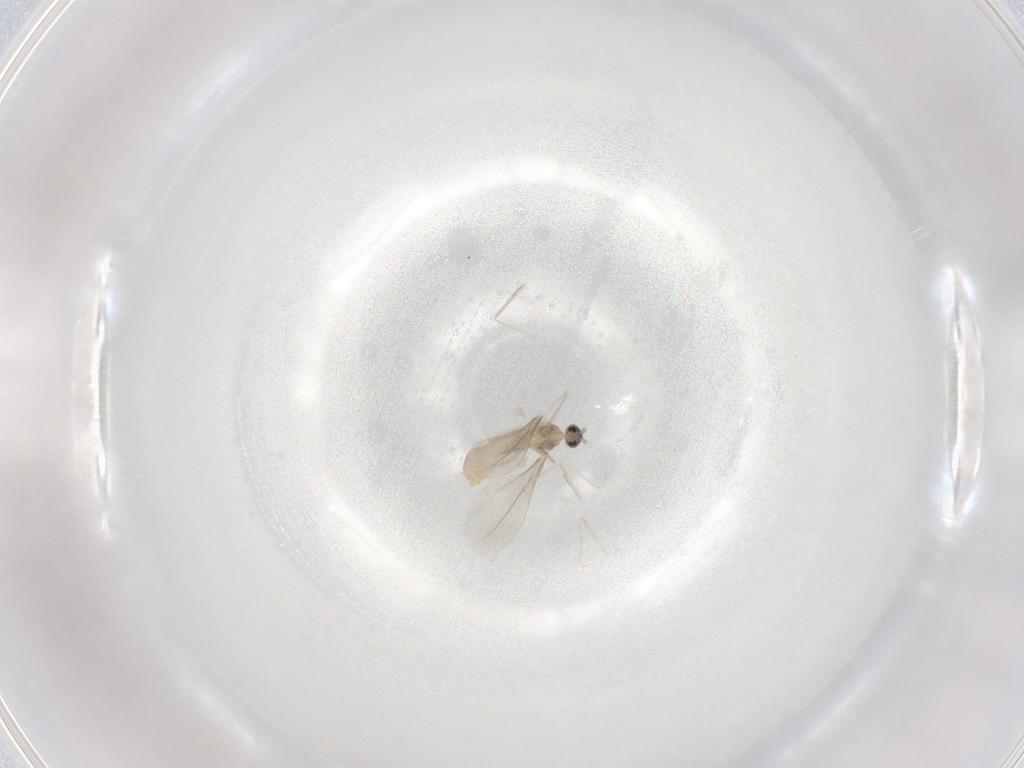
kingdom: Animalia
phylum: Arthropoda
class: Insecta
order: Diptera
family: Cecidomyiidae
